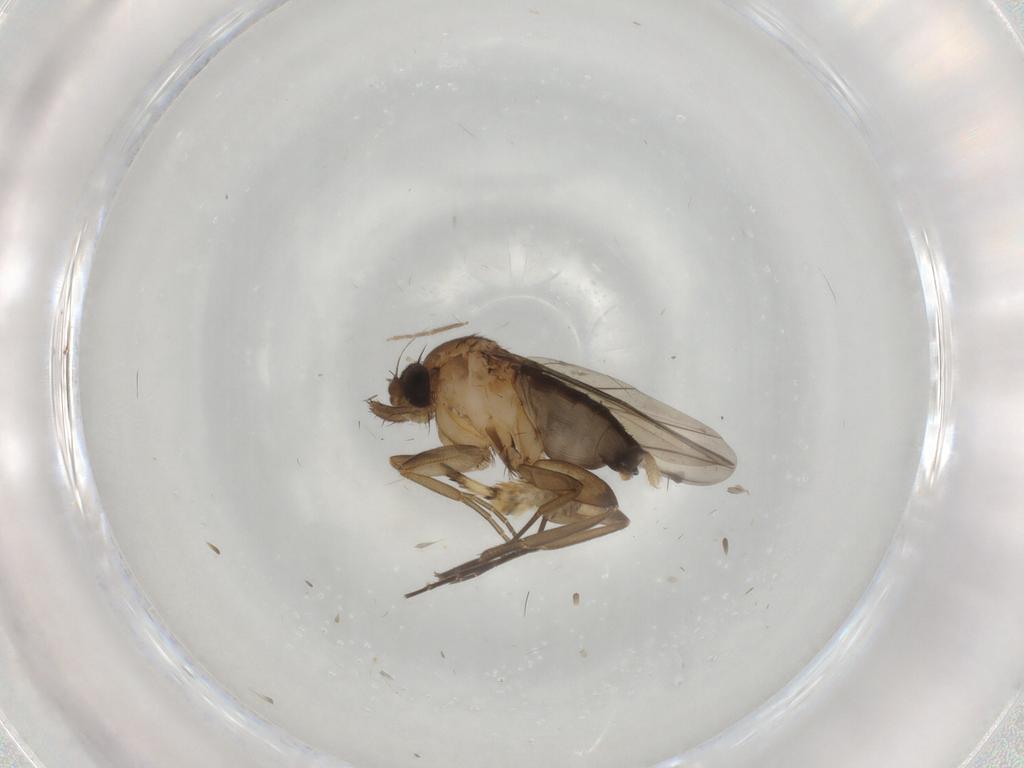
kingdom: Animalia
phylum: Arthropoda
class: Insecta
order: Diptera
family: Phoridae
